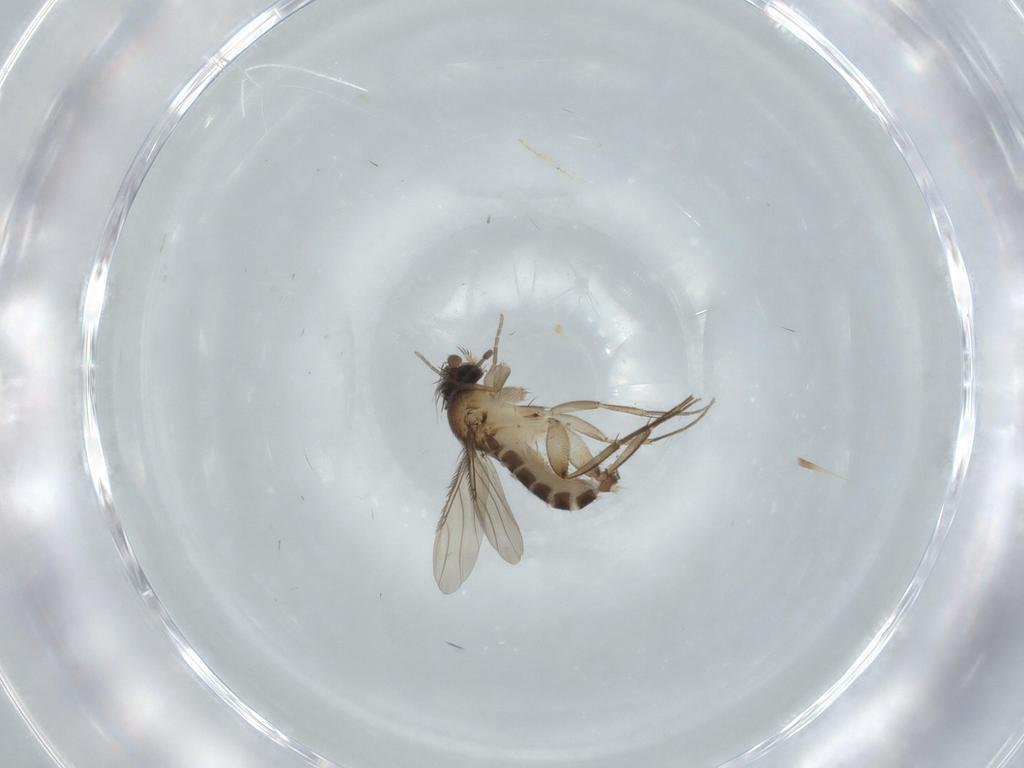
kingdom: Animalia
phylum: Arthropoda
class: Insecta
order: Diptera
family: Phoridae
